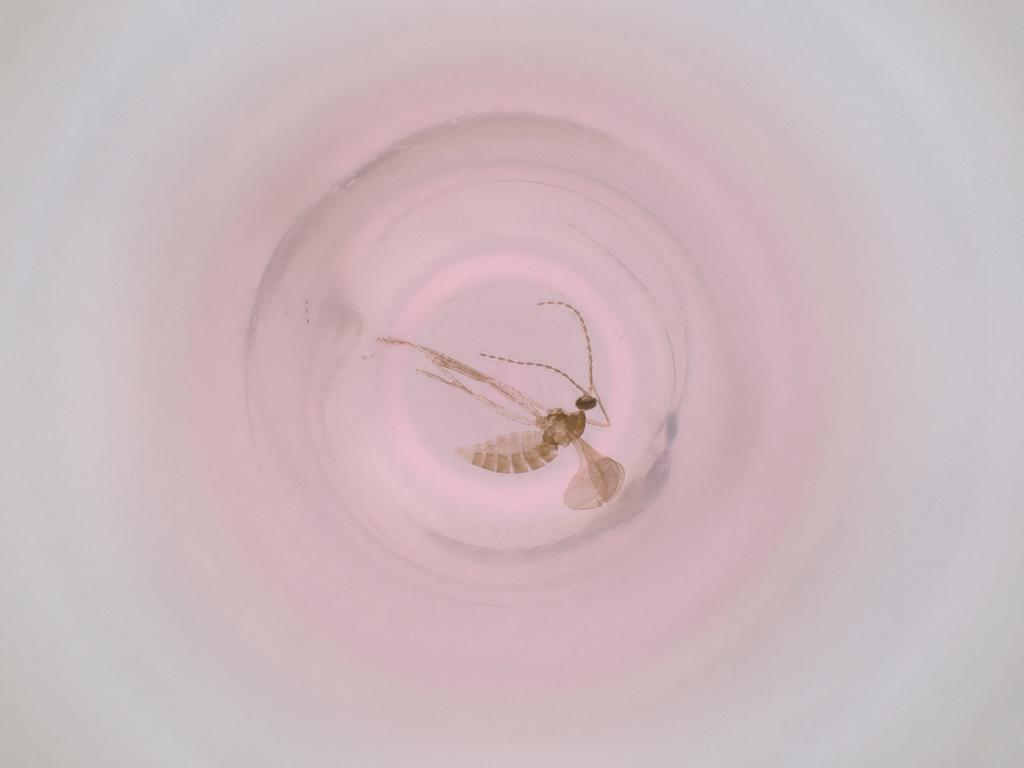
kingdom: Animalia
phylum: Arthropoda
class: Insecta
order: Diptera
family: Cecidomyiidae
